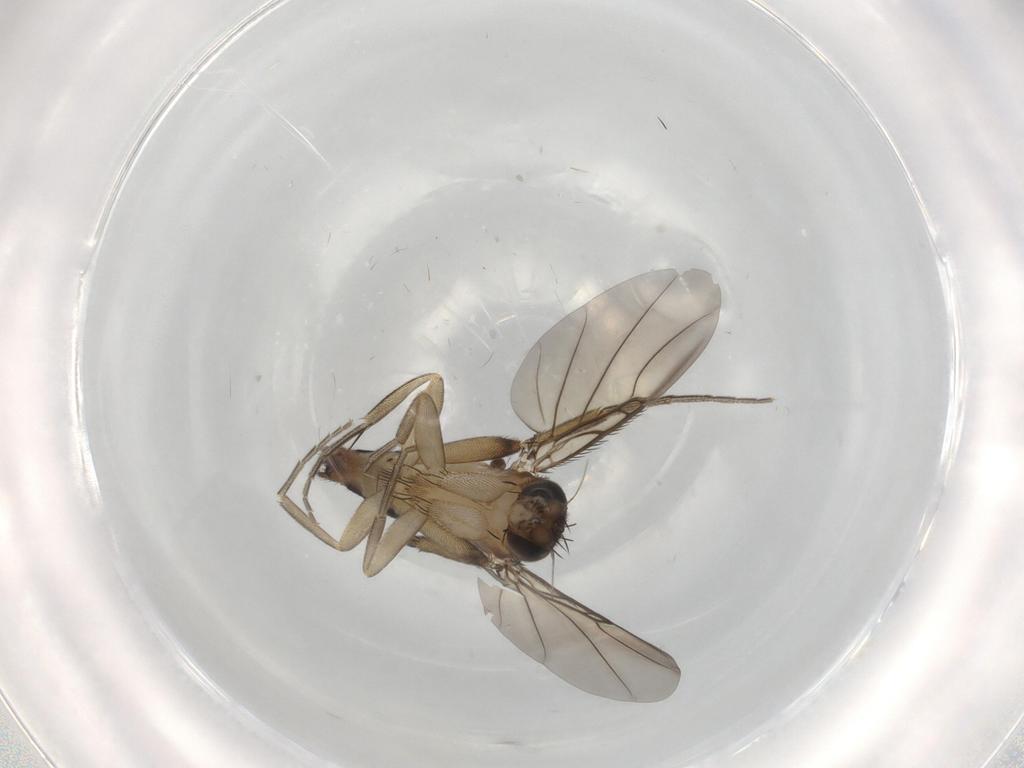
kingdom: Animalia
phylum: Arthropoda
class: Insecta
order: Diptera
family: Phoridae
